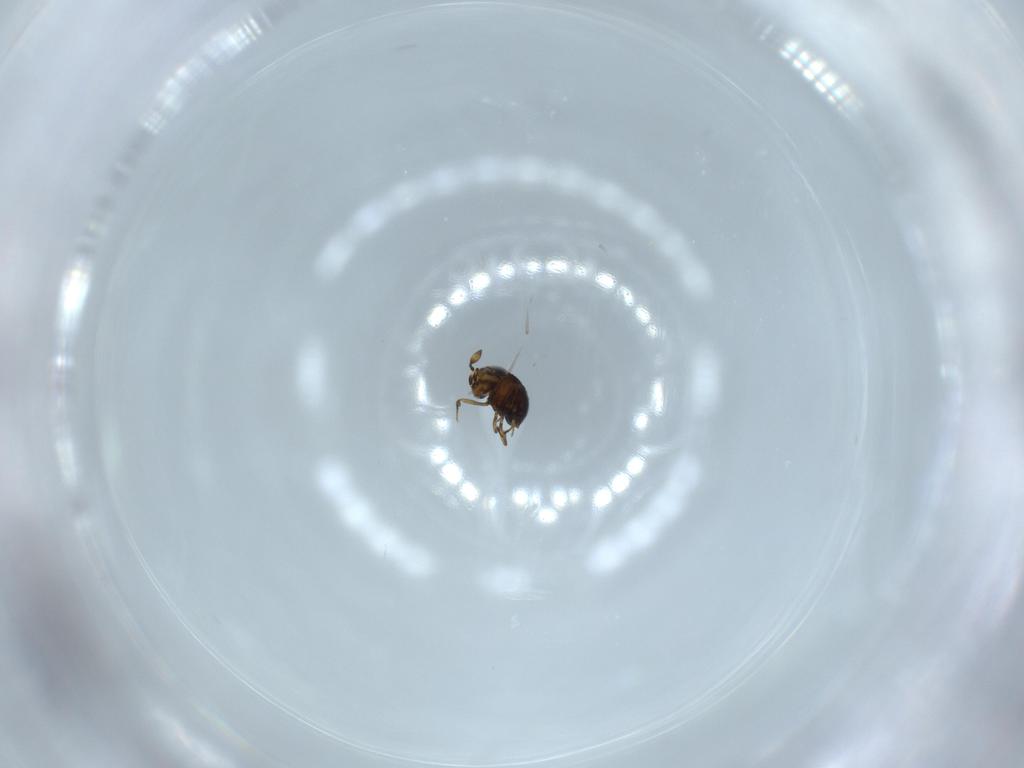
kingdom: Animalia
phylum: Arthropoda
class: Insecta
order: Hymenoptera
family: Scelionidae
